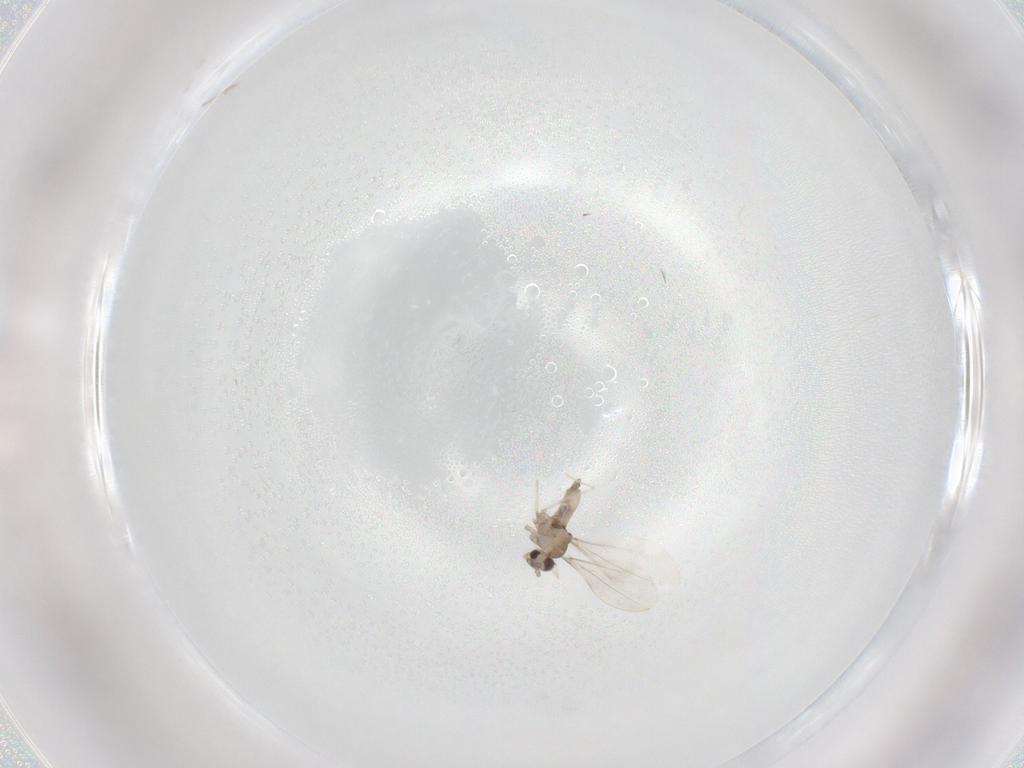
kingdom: Animalia
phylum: Arthropoda
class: Insecta
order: Diptera
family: Cecidomyiidae
